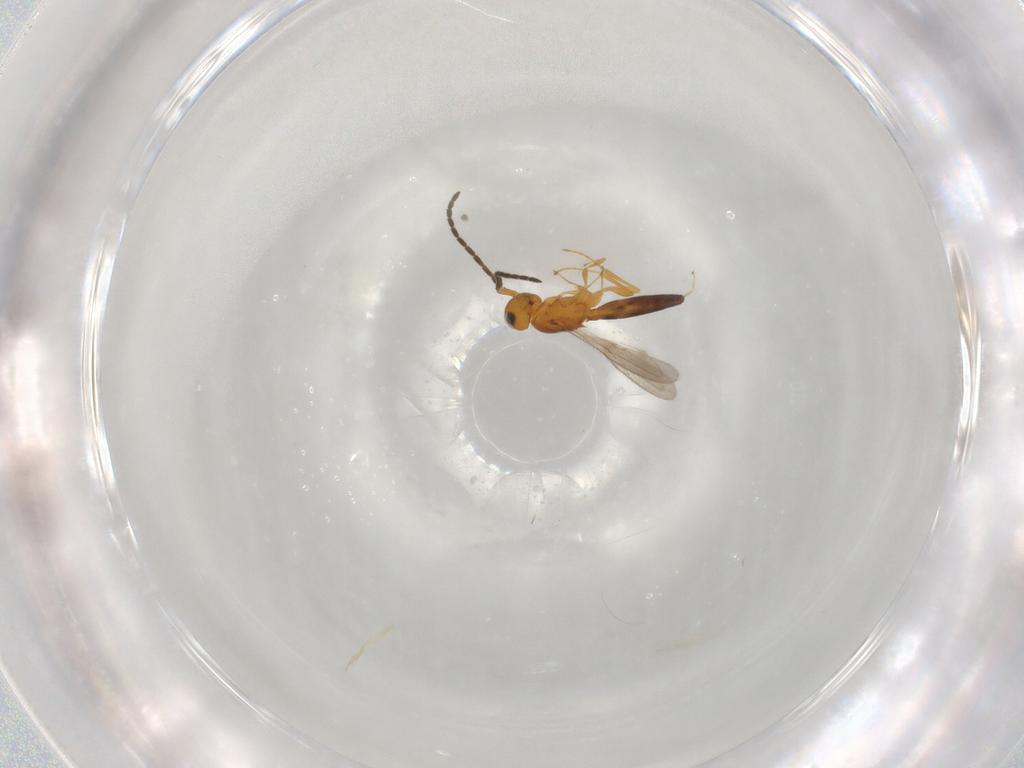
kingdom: Animalia
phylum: Arthropoda
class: Insecta
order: Hymenoptera
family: Scelionidae
